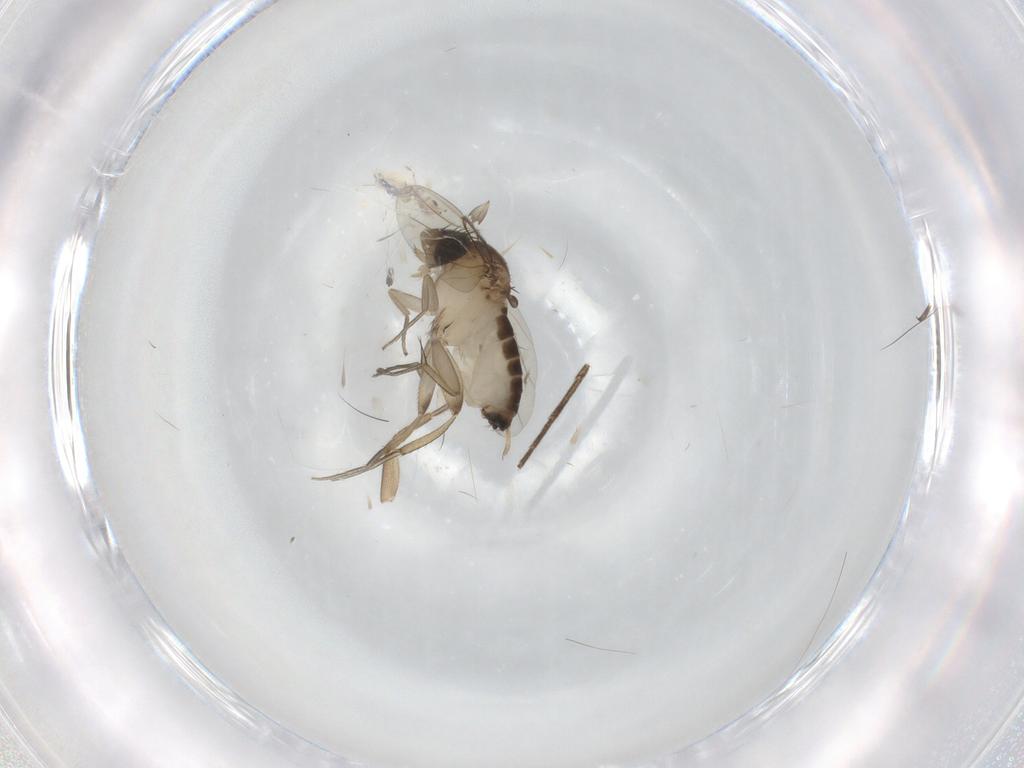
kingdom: Animalia
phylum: Arthropoda
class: Insecta
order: Diptera
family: Phoridae
